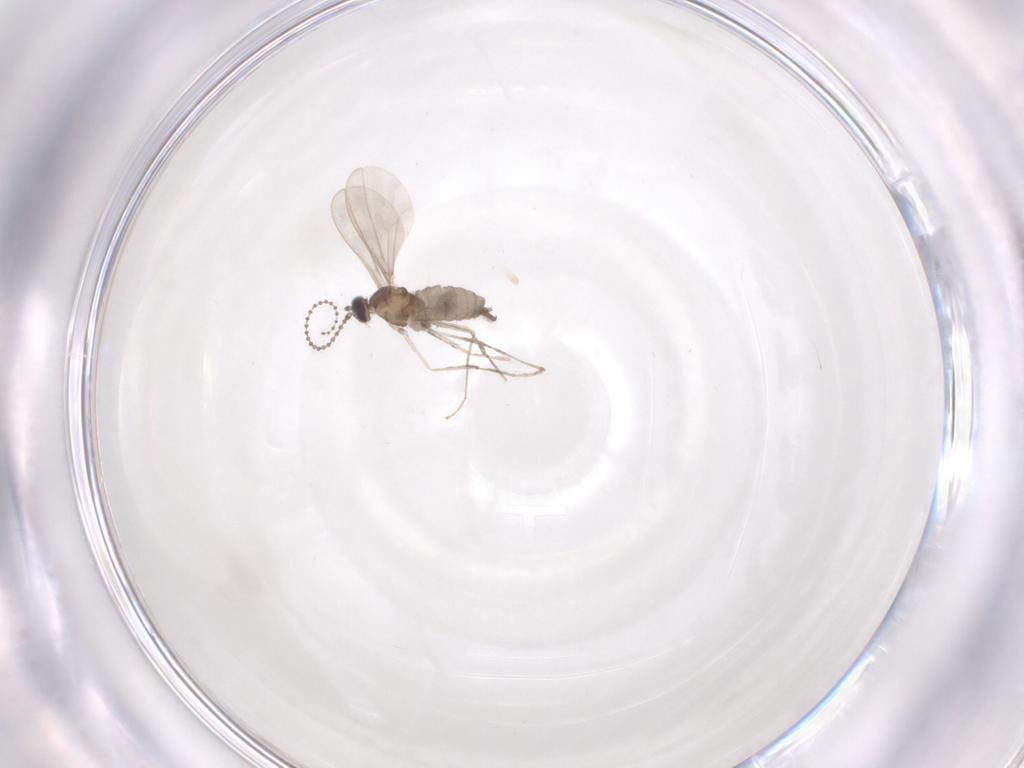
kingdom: Animalia
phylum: Arthropoda
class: Insecta
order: Diptera
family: Cecidomyiidae
